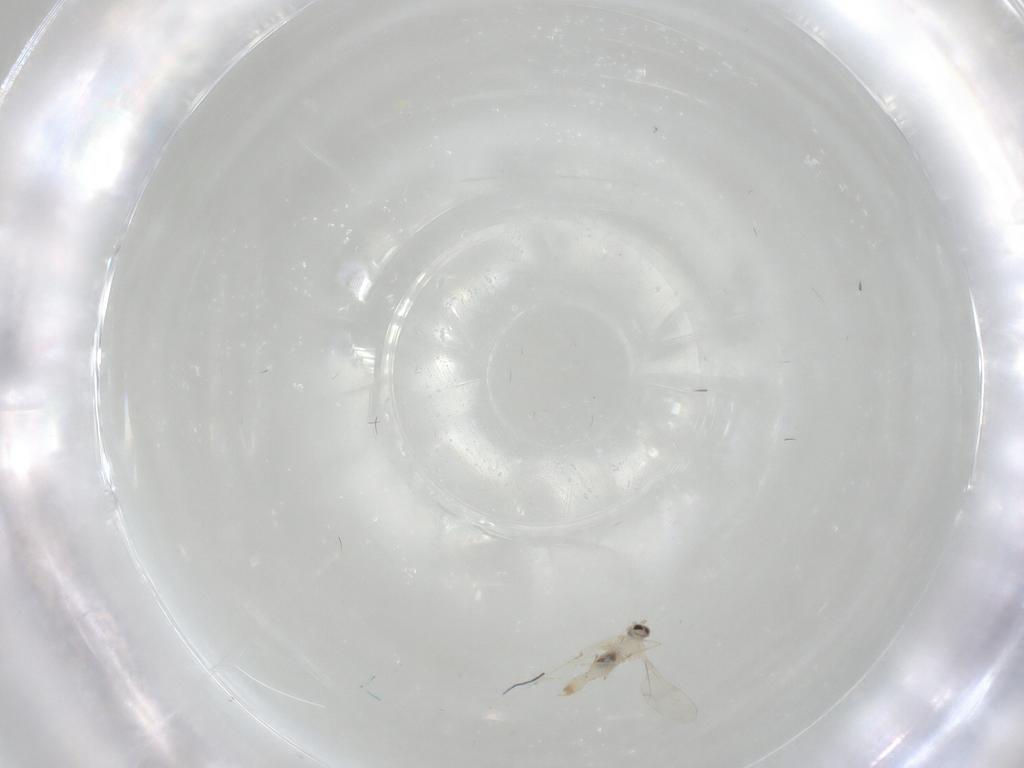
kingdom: Animalia
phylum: Arthropoda
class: Insecta
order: Diptera
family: Cecidomyiidae
